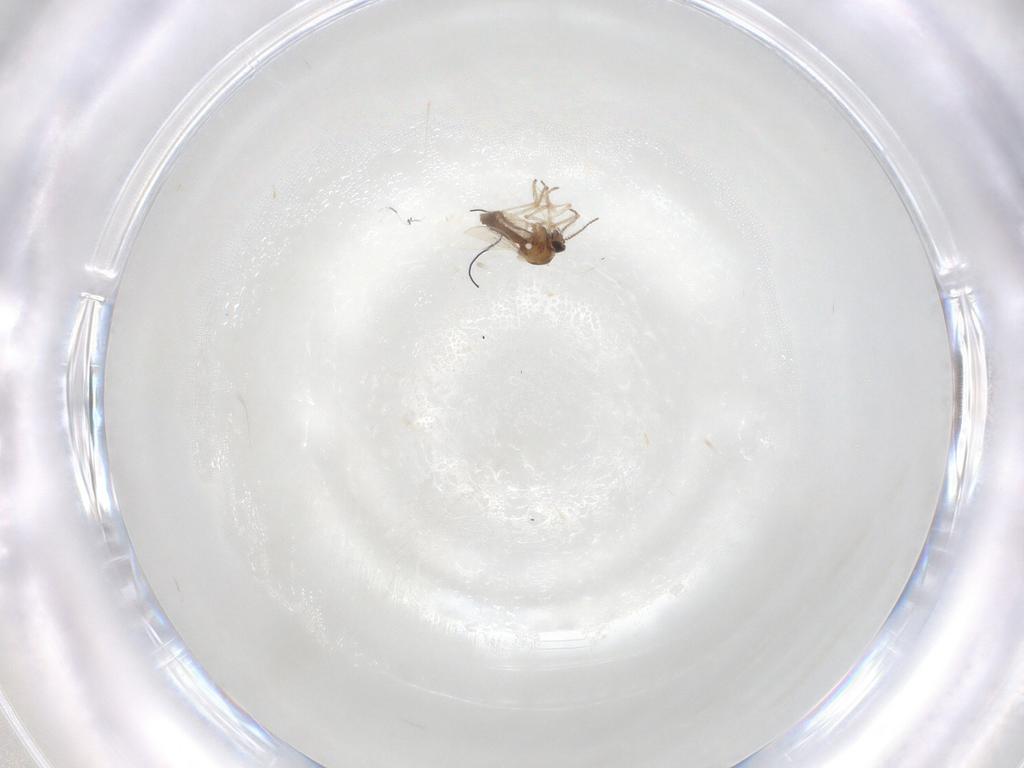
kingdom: Animalia
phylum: Arthropoda
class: Insecta
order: Diptera
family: Ceratopogonidae
